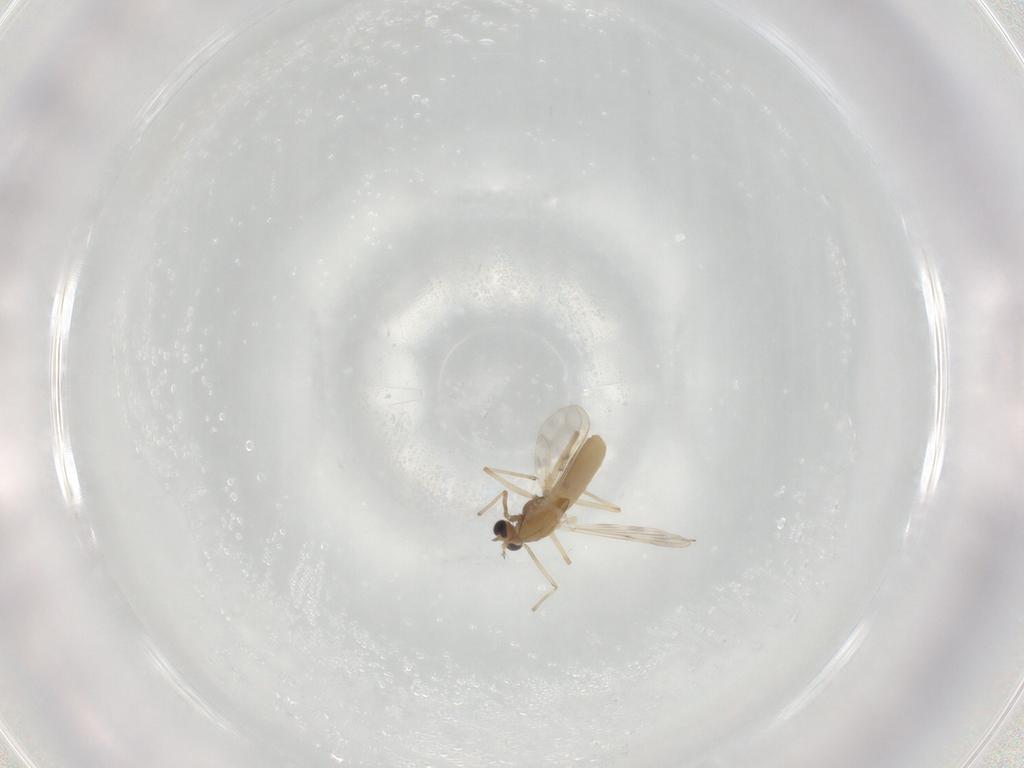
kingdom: Animalia
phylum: Arthropoda
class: Insecta
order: Diptera
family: Chironomidae
